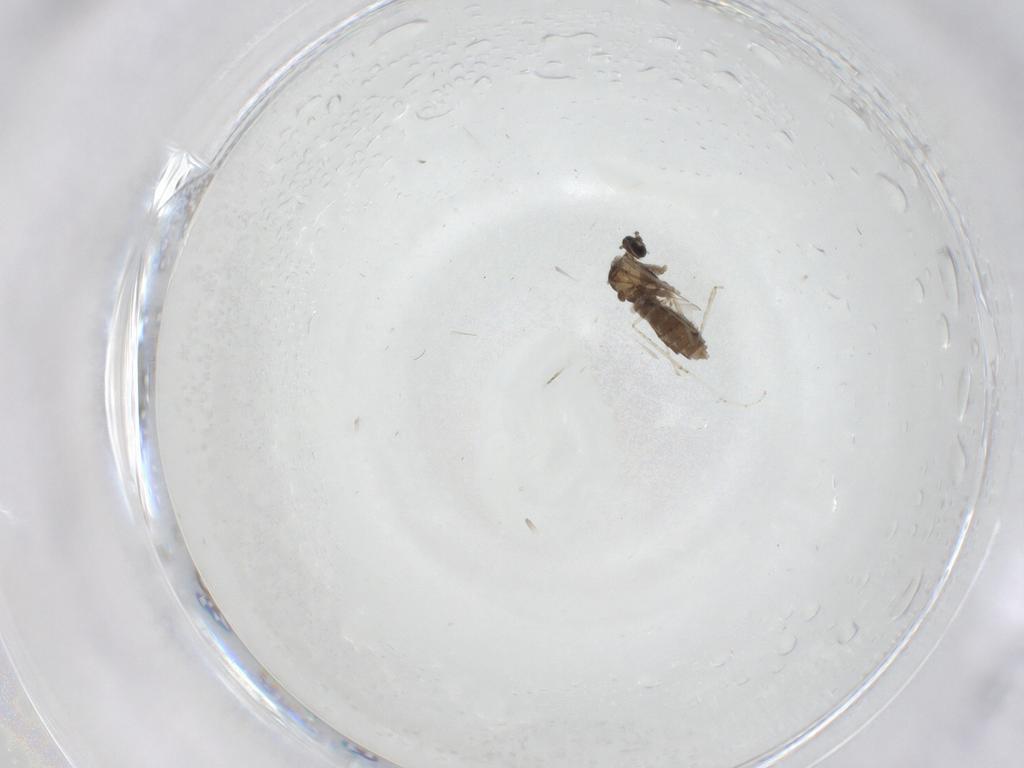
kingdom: Animalia
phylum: Arthropoda
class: Insecta
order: Diptera
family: Cecidomyiidae
